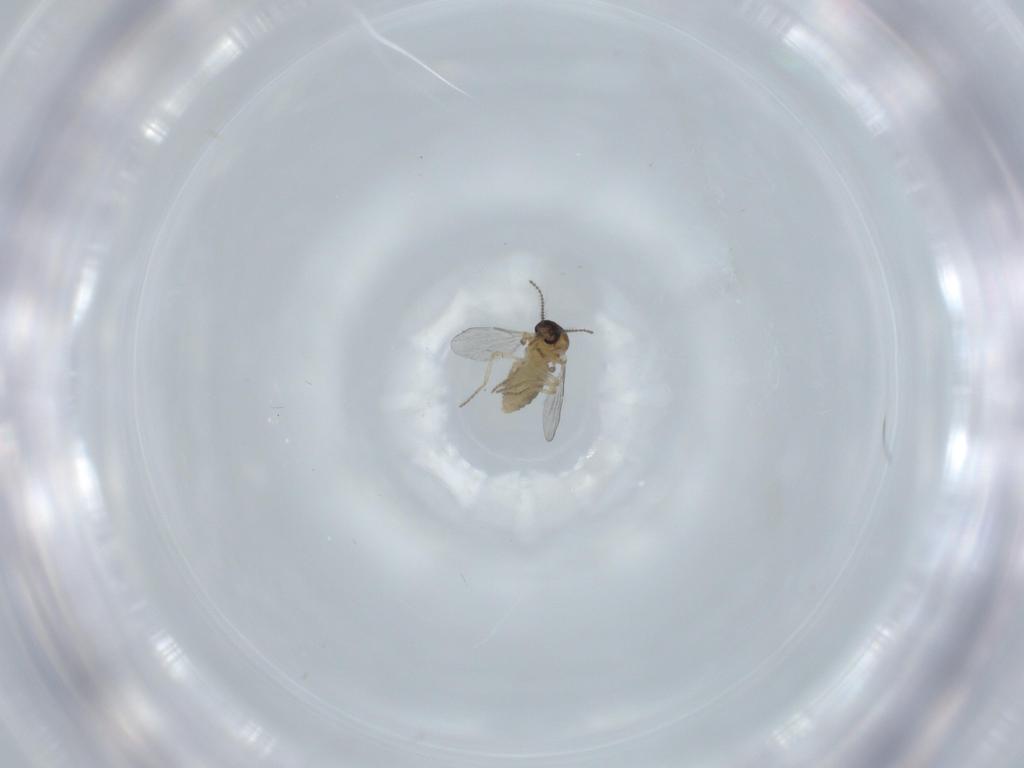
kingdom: Animalia
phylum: Arthropoda
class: Insecta
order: Diptera
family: Ceratopogonidae
